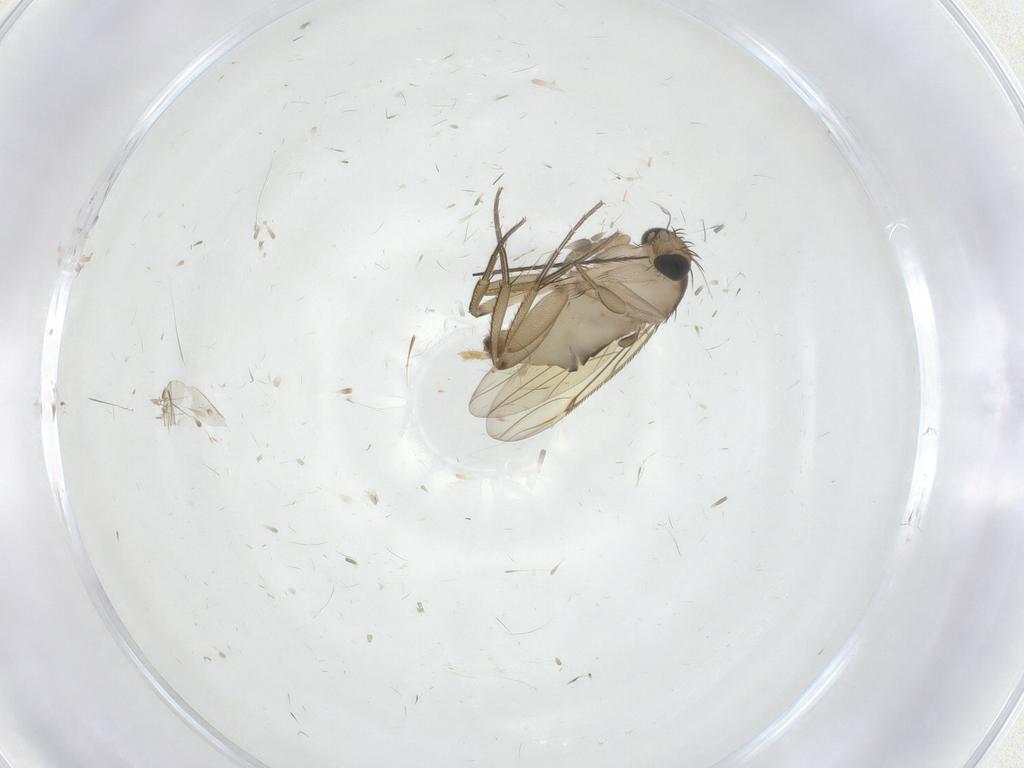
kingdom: Animalia
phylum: Arthropoda
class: Insecta
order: Diptera
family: Phoridae
